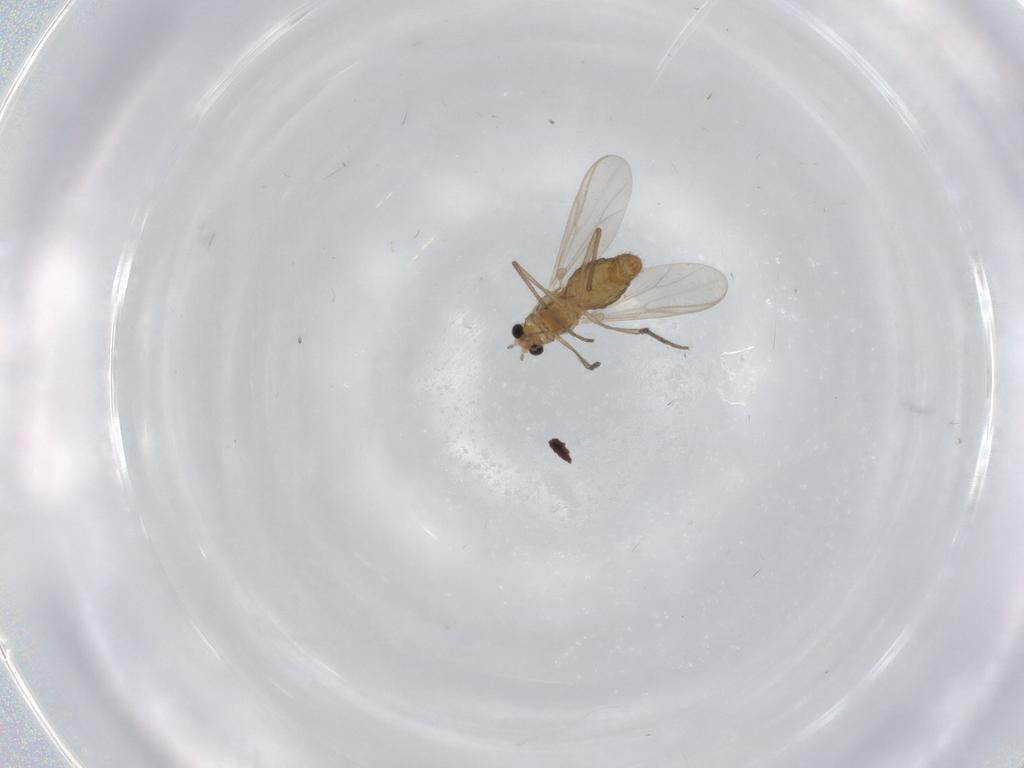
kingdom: Animalia
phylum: Arthropoda
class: Insecta
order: Diptera
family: Chironomidae
